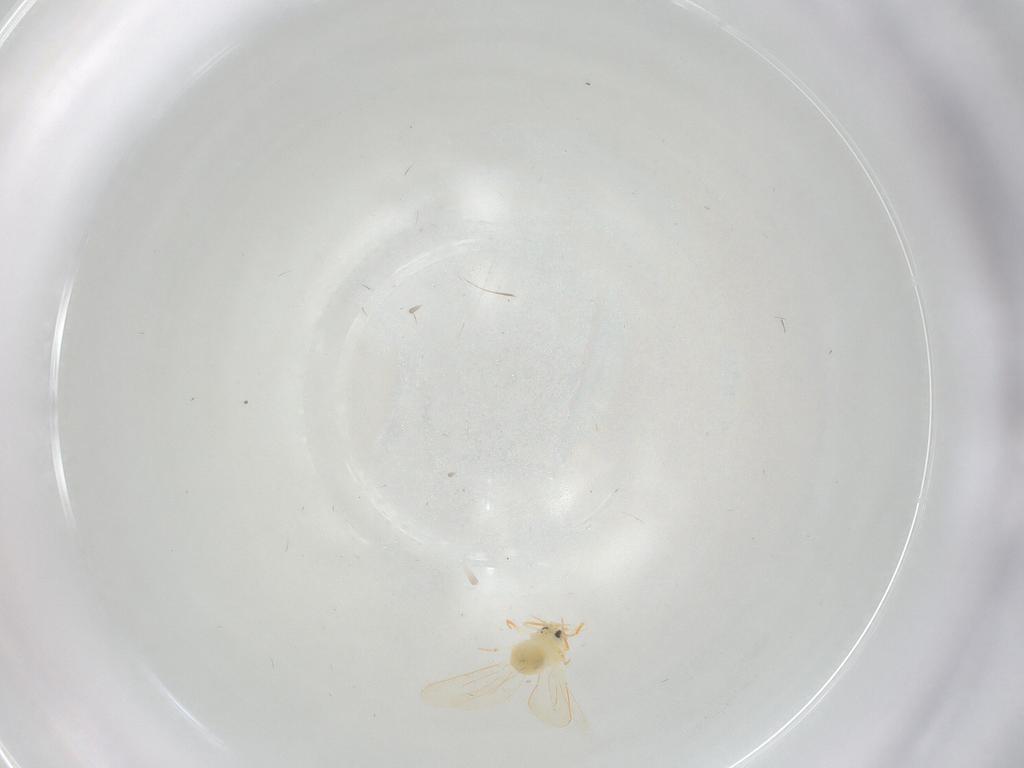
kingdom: Animalia
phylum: Arthropoda
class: Insecta
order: Hemiptera
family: Aleyrodidae
